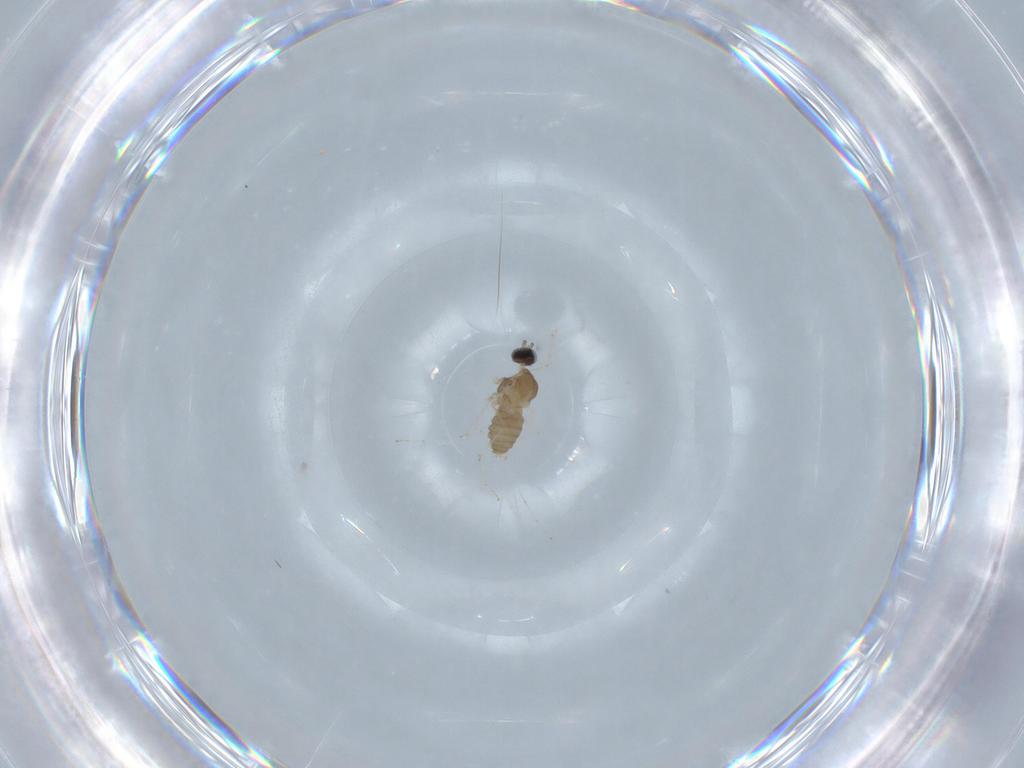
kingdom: Animalia
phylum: Arthropoda
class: Insecta
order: Diptera
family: Cecidomyiidae
